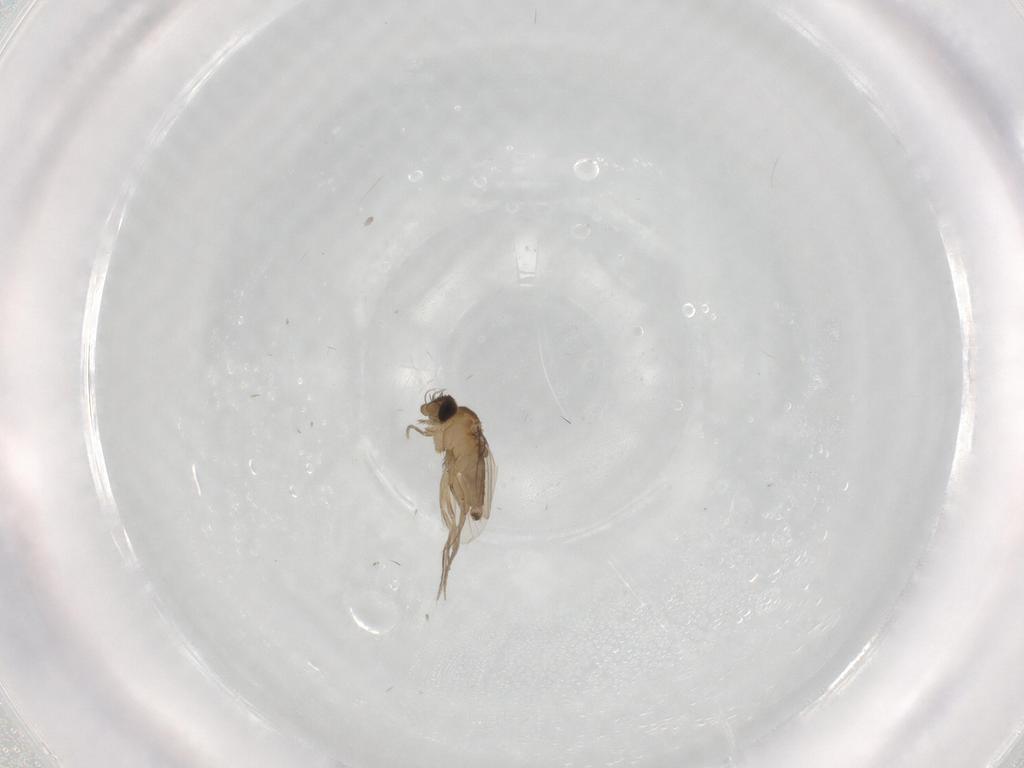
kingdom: Animalia
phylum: Arthropoda
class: Insecta
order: Diptera
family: Phoridae
